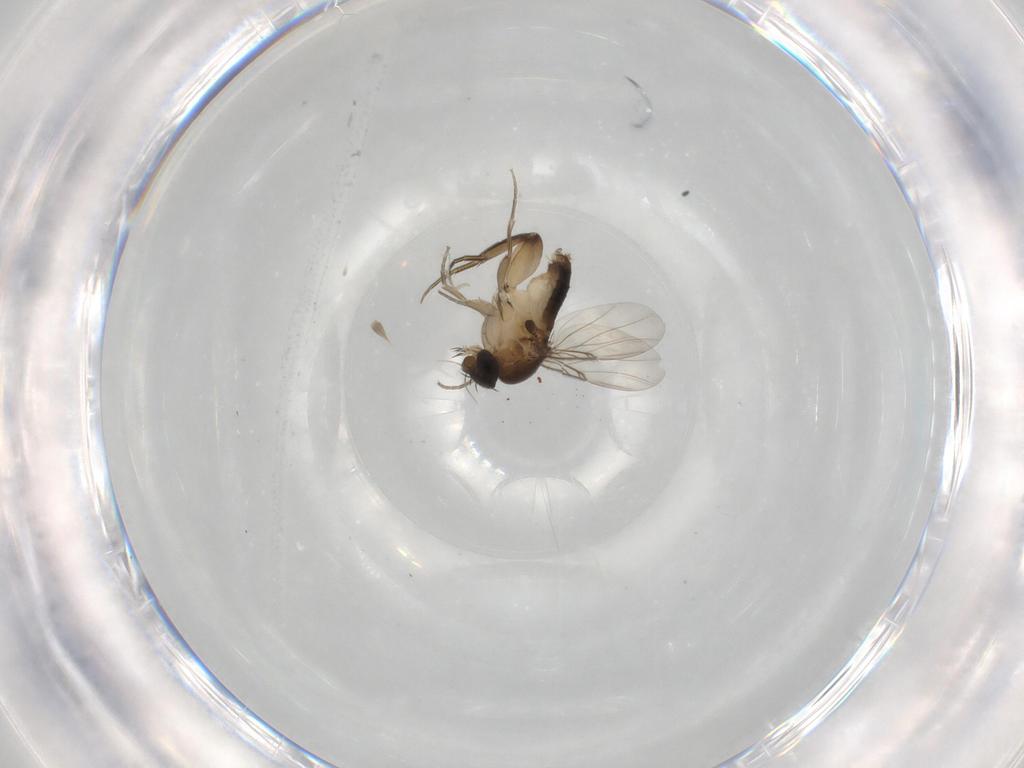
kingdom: Animalia
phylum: Arthropoda
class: Insecta
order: Diptera
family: Phoridae
